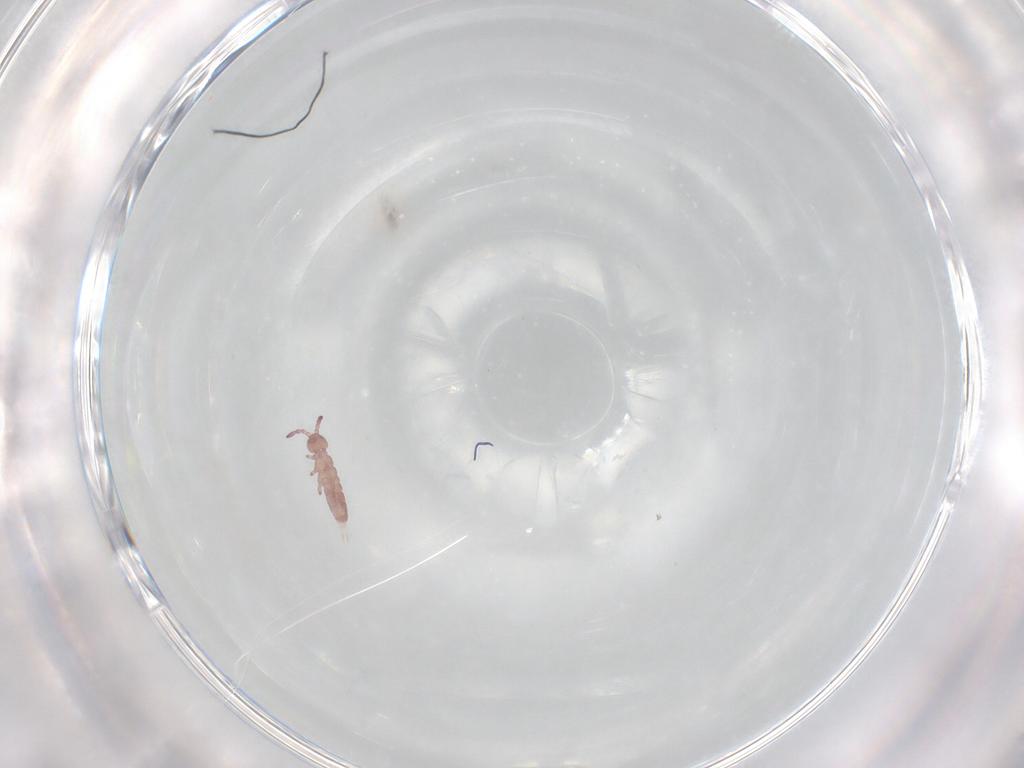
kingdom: Animalia
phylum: Arthropoda
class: Collembola
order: Entomobryomorpha
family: Isotomidae
